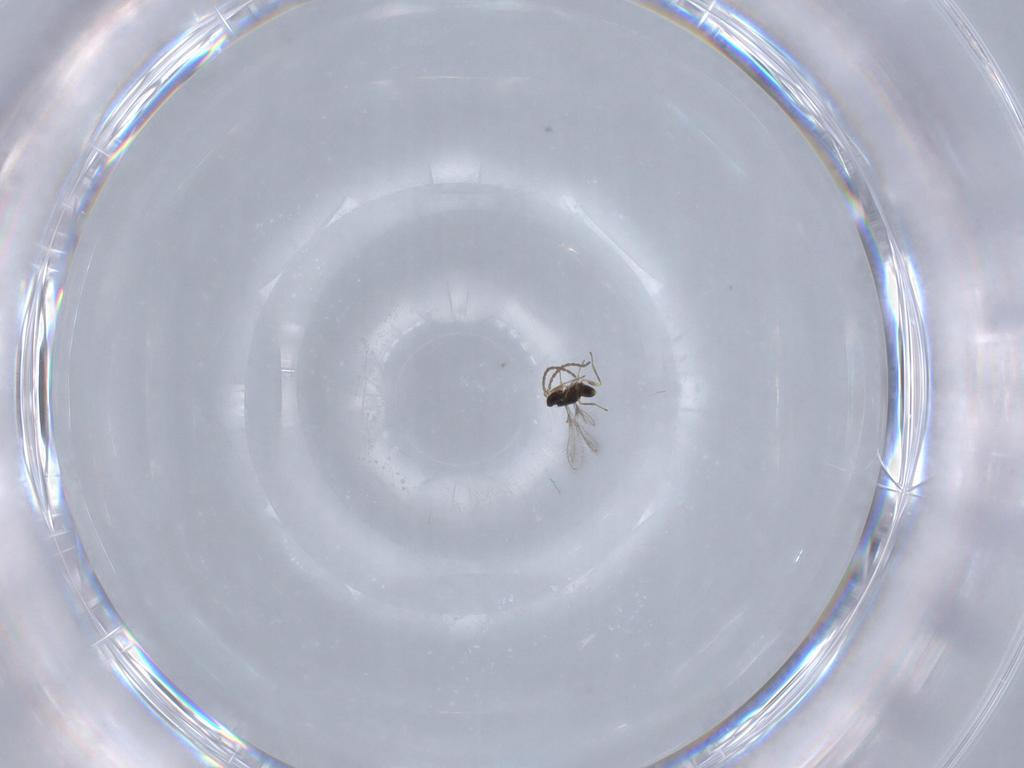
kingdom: Animalia
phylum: Arthropoda
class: Insecta
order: Hymenoptera
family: Mymaridae
